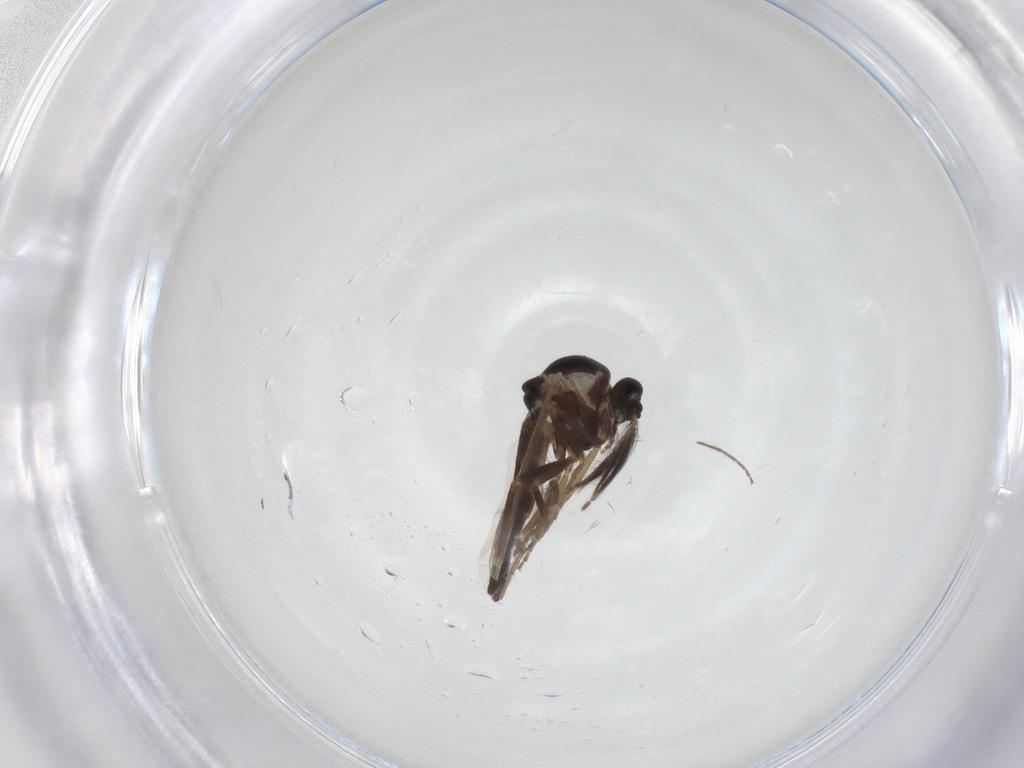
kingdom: Animalia
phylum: Arthropoda
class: Insecta
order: Diptera
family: Ceratopogonidae
